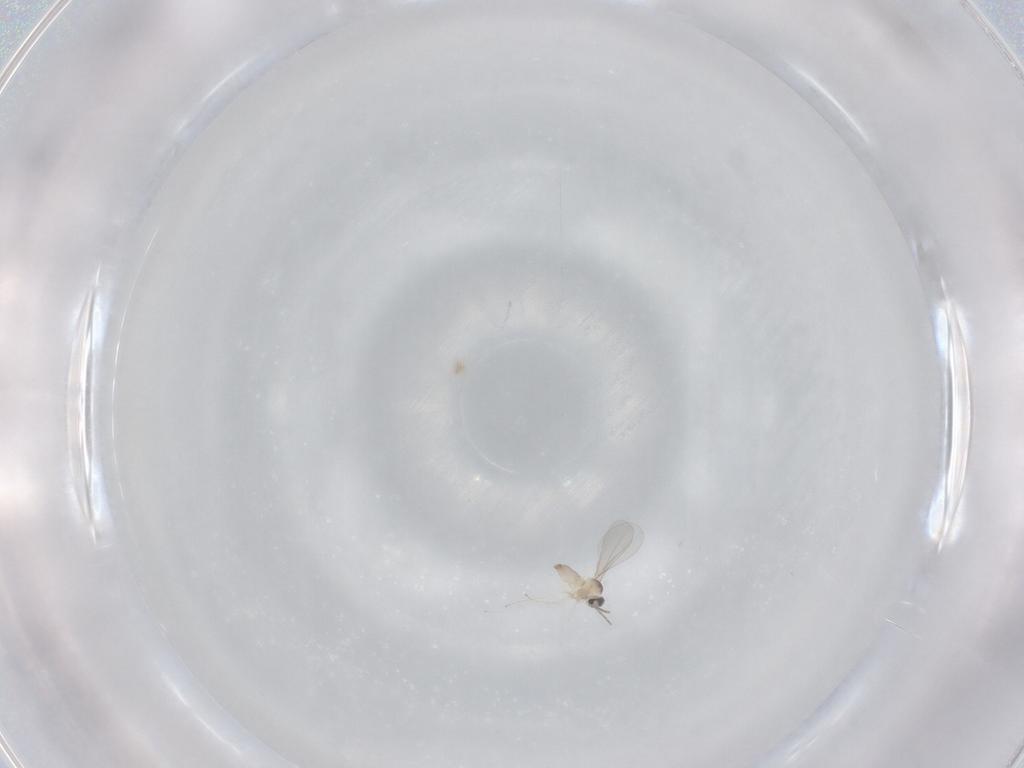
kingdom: Animalia
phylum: Arthropoda
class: Insecta
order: Diptera
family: Cecidomyiidae
